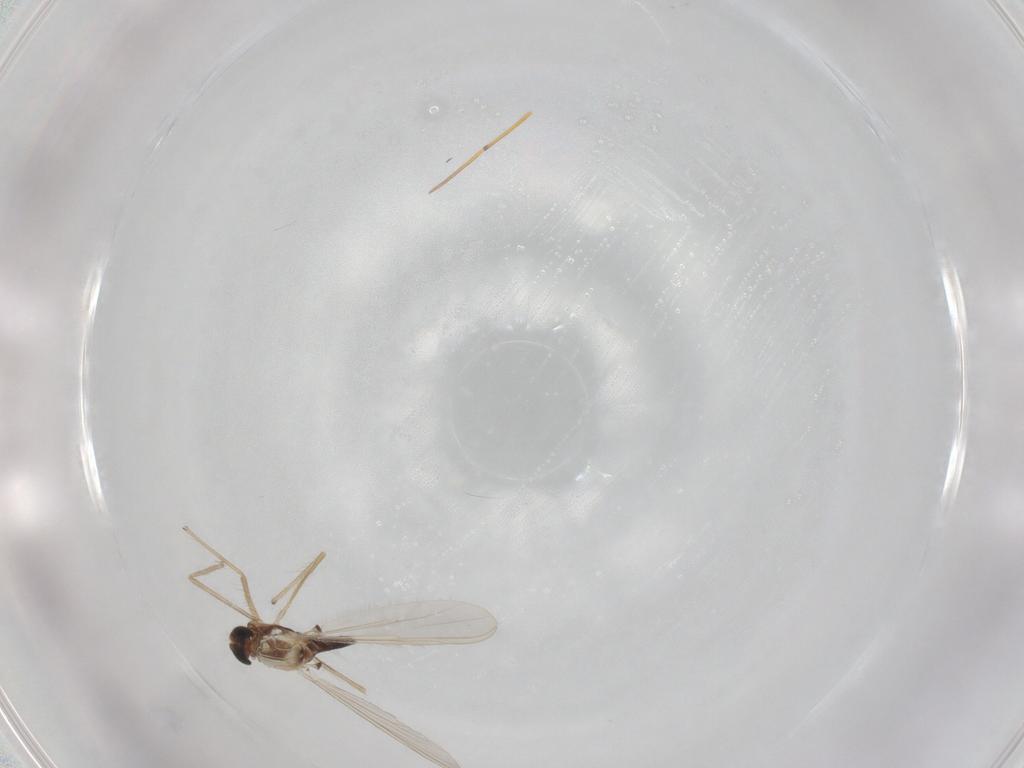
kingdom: Animalia
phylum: Arthropoda
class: Insecta
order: Diptera
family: Chironomidae
